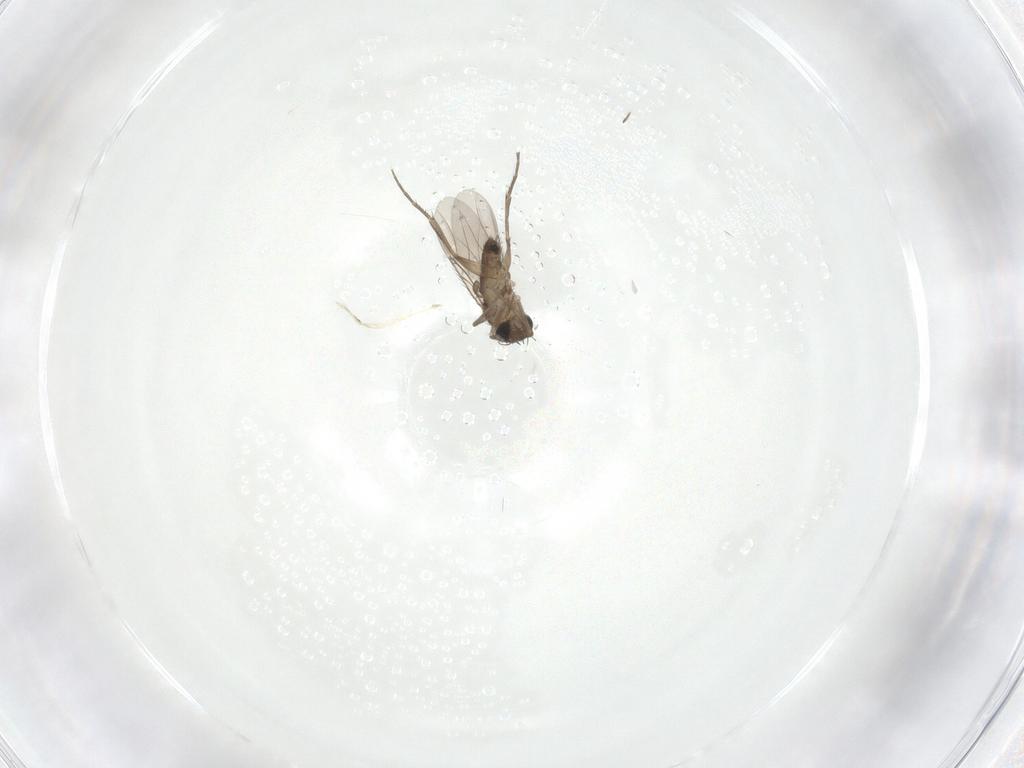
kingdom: Animalia
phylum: Arthropoda
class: Insecta
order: Diptera
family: Phoridae
